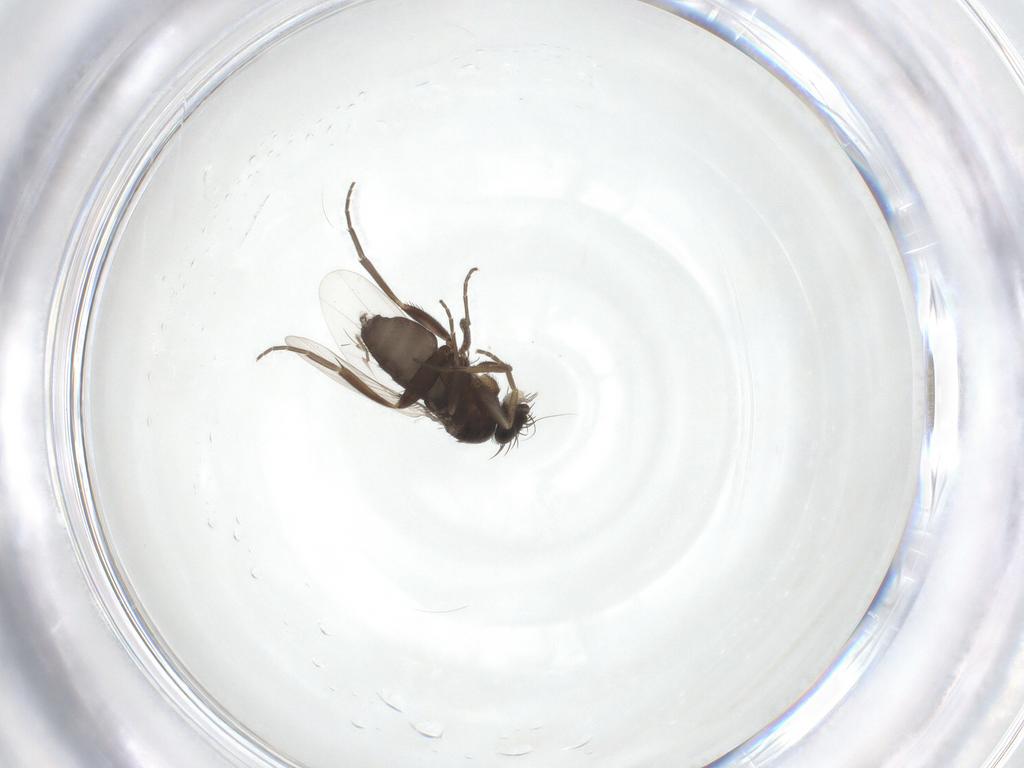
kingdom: Animalia
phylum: Arthropoda
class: Insecta
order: Diptera
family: Phoridae
